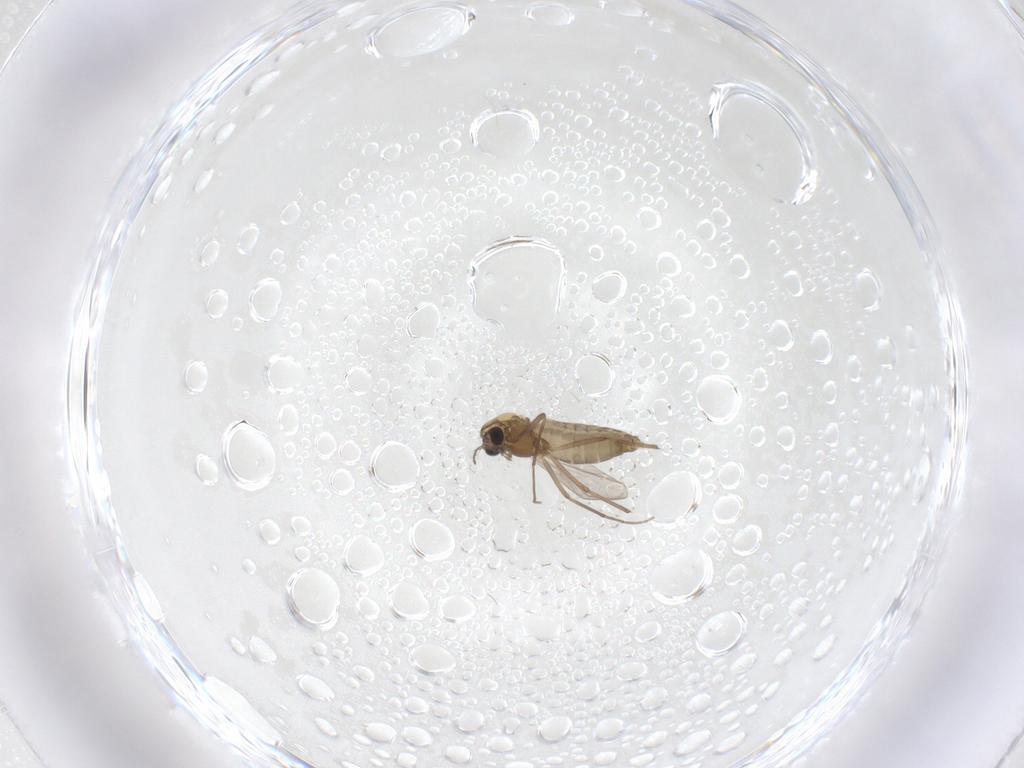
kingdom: Animalia
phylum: Arthropoda
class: Insecta
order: Diptera
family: Chironomidae
